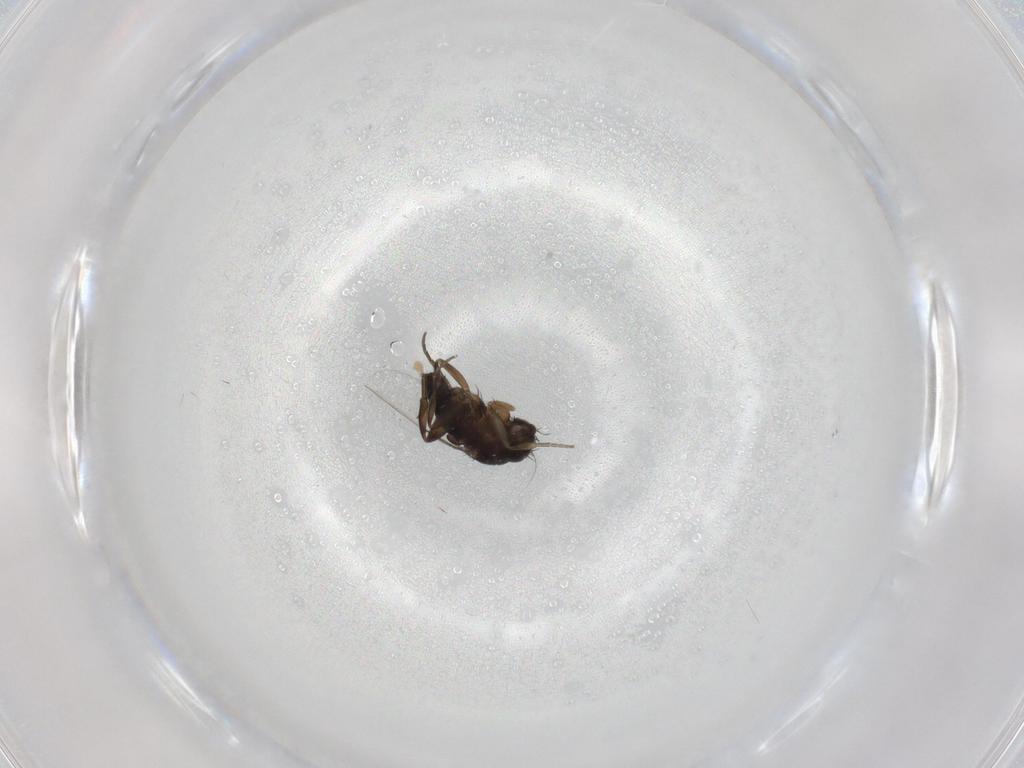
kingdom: Animalia
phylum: Arthropoda
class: Insecta
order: Diptera
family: Phoridae
